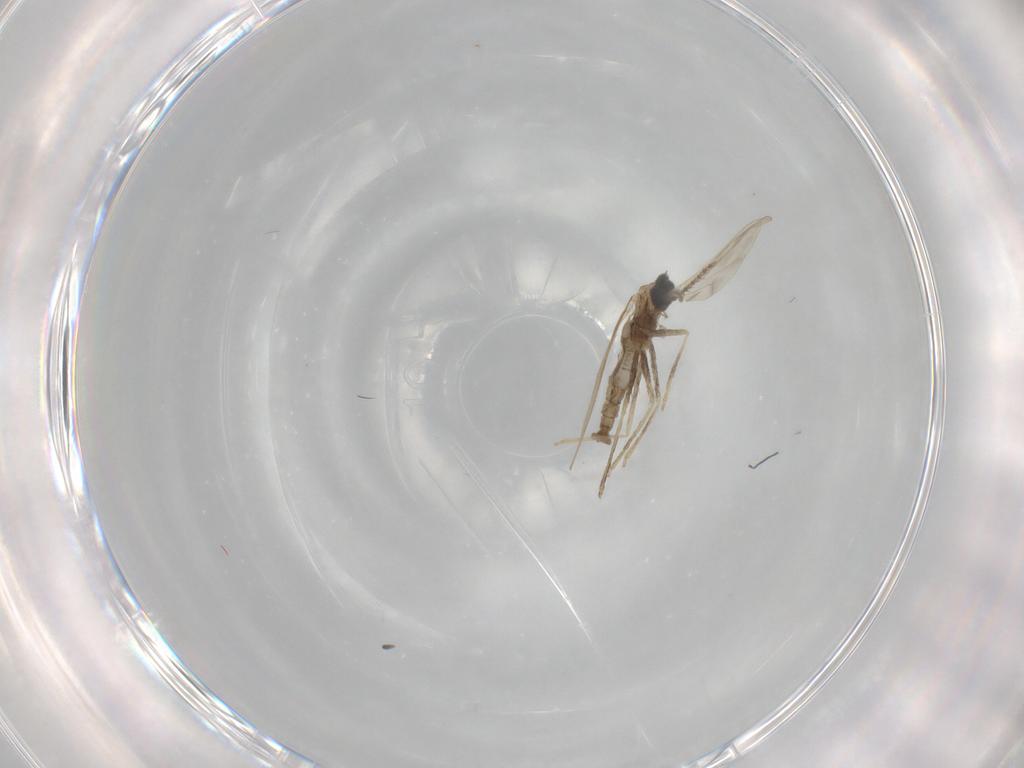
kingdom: Animalia
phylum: Arthropoda
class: Insecta
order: Diptera
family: Cecidomyiidae
